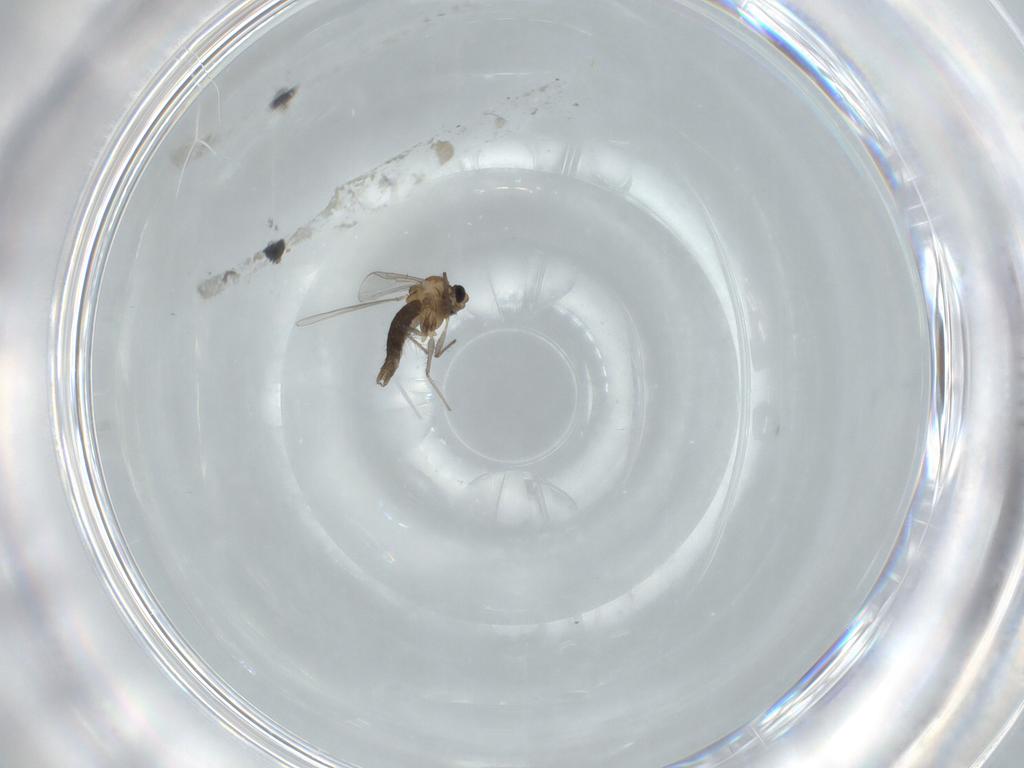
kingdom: Animalia
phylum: Arthropoda
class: Insecta
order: Diptera
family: Chironomidae
